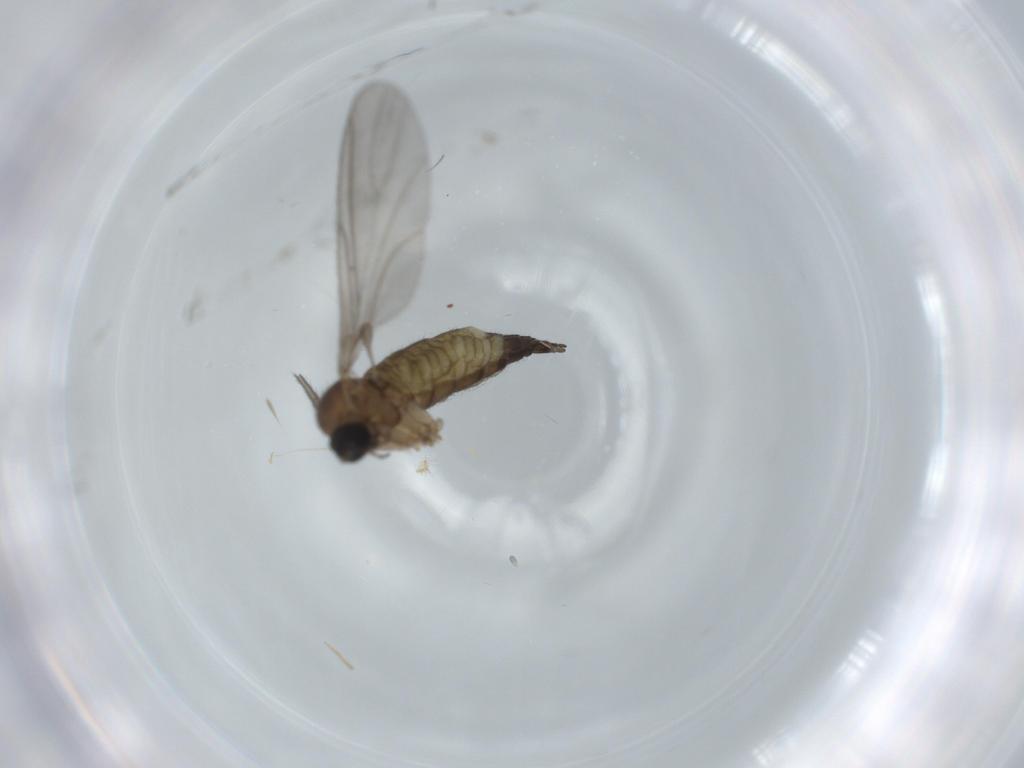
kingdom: Animalia
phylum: Arthropoda
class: Insecta
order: Diptera
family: Sciaridae
